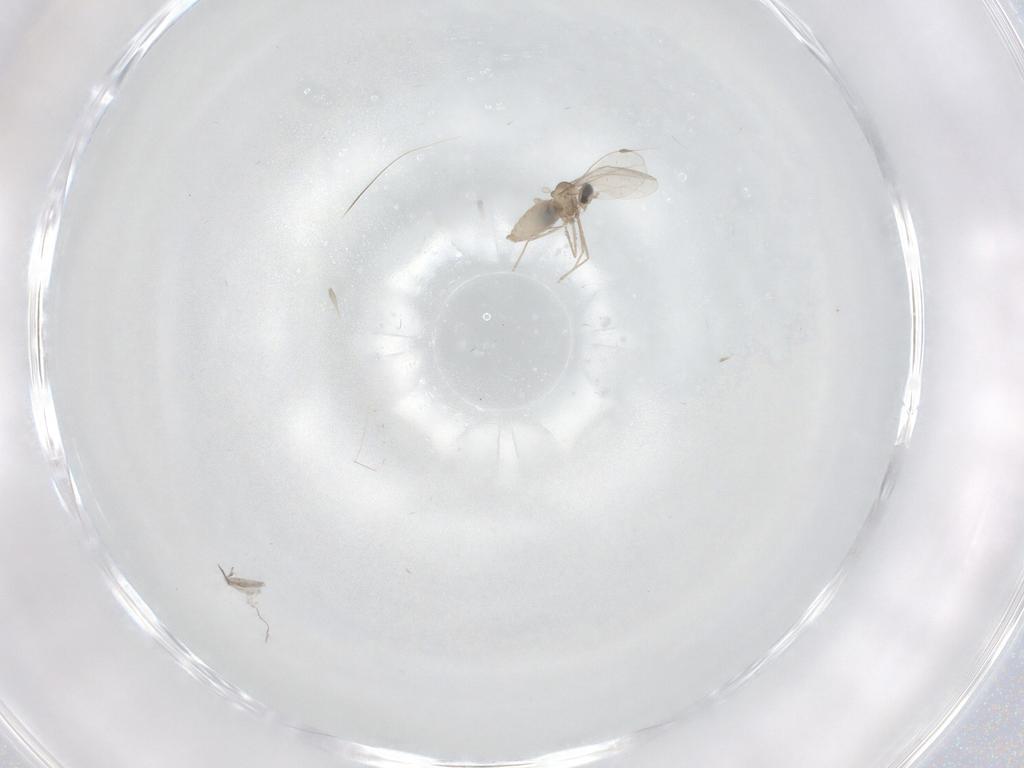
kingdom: Animalia
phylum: Arthropoda
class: Insecta
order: Diptera
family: Cecidomyiidae
